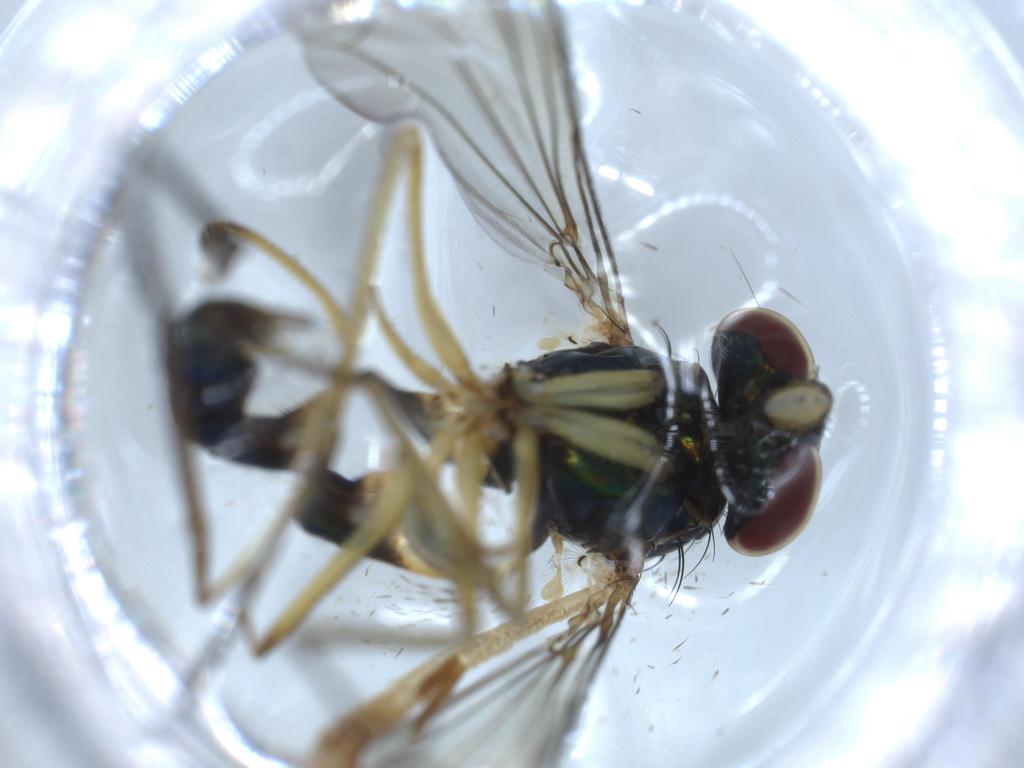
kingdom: Animalia
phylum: Arthropoda
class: Insecta
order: Diptera
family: Dolichopodidae
